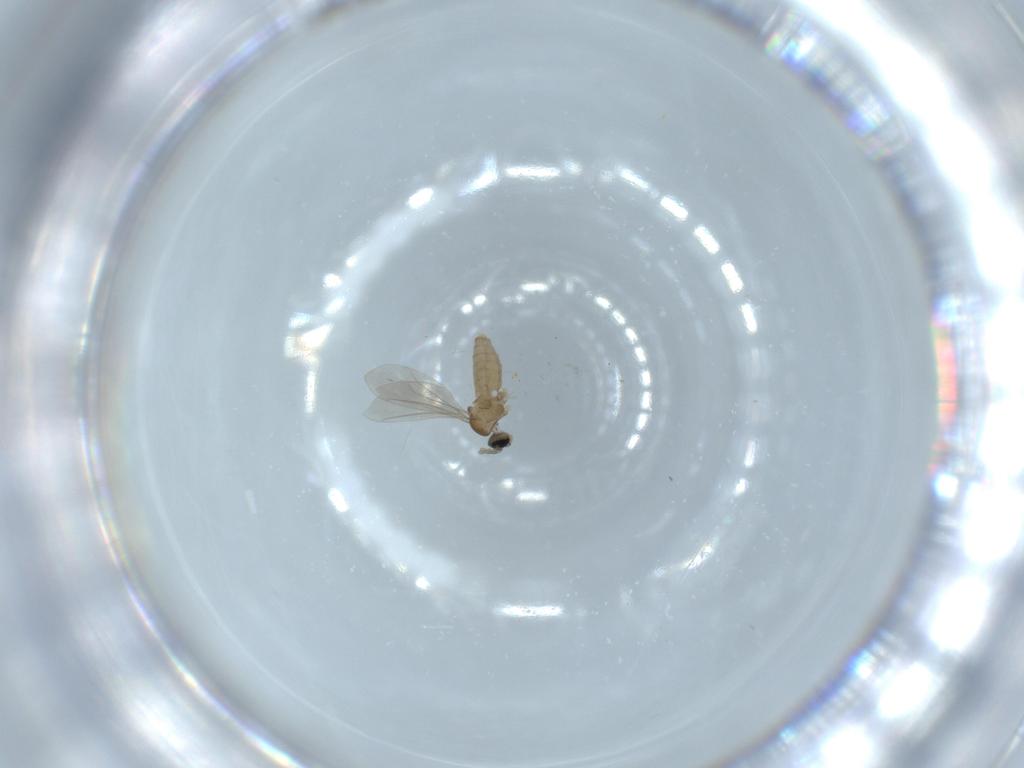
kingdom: Animalia
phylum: Arthropoda
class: Insecta
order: Diptera
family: Cecidomyiidae
